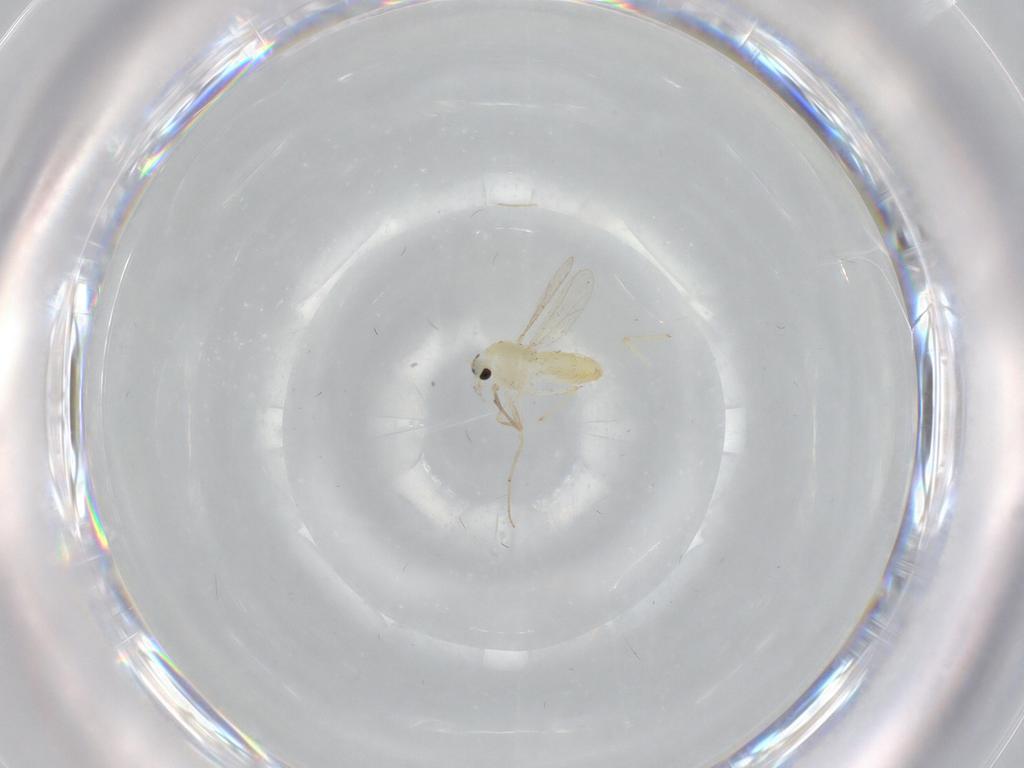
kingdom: Animalia
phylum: Arthropoda
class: Insecta
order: Diptera
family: Chironomidae
